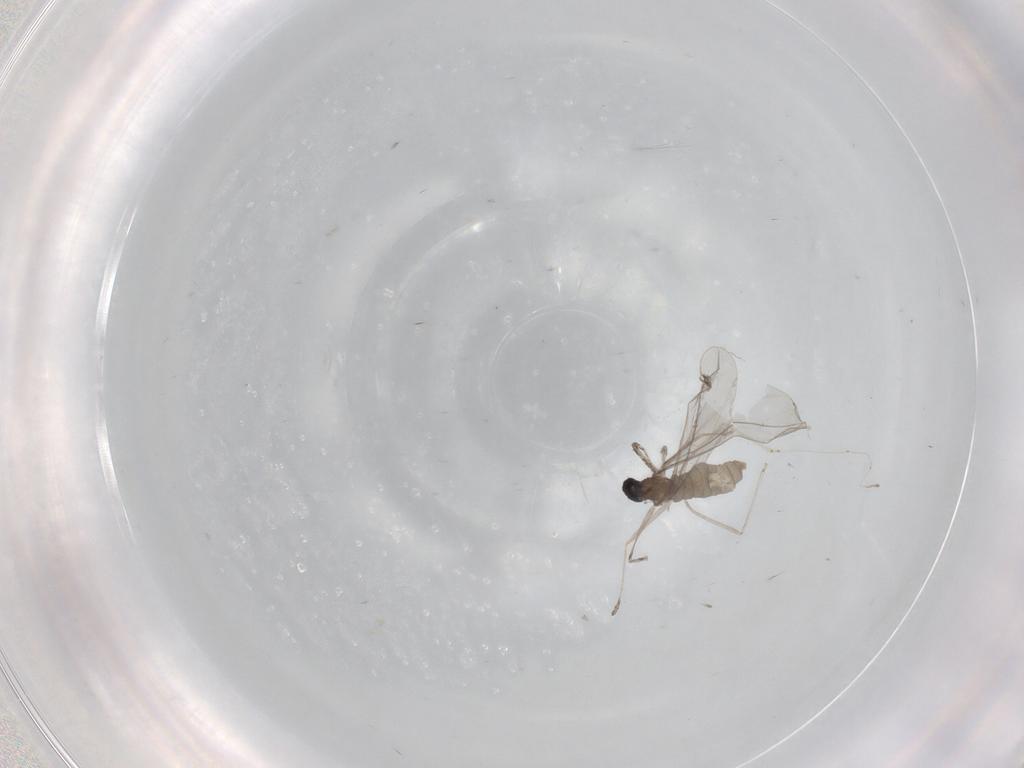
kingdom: Animalia
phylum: Arthropoda
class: Insecta
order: Diptera
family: Cecidomyiidae
